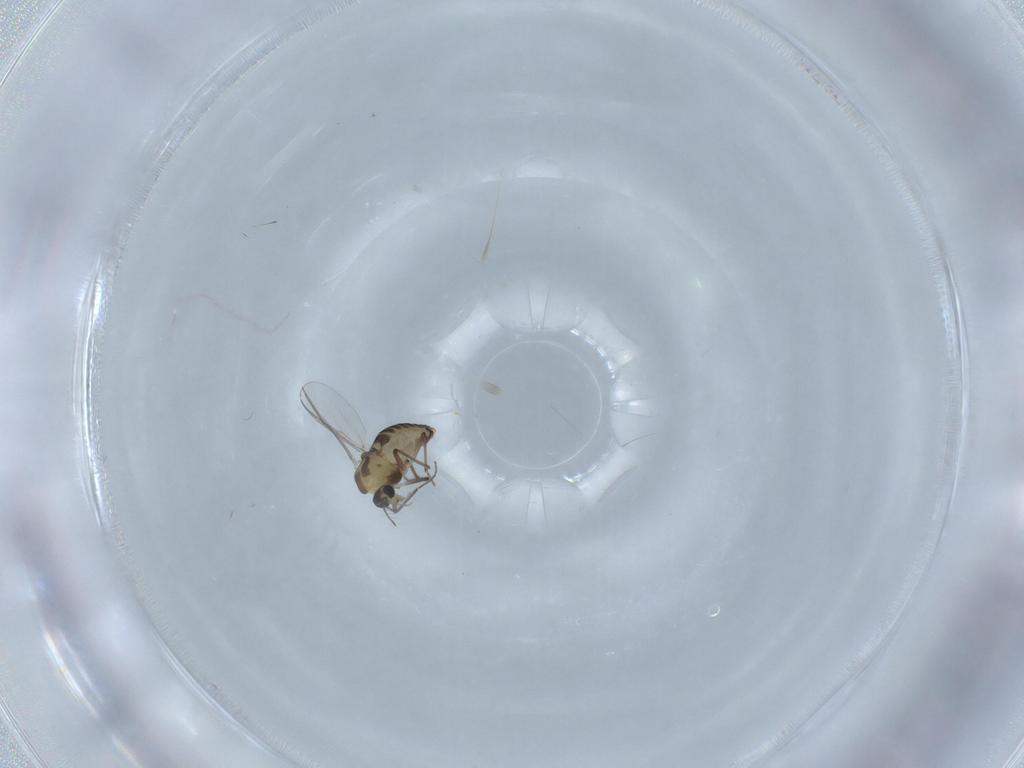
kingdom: Animalia
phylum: Arthropoda
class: Insecta
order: Diptera
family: Chironomidae
